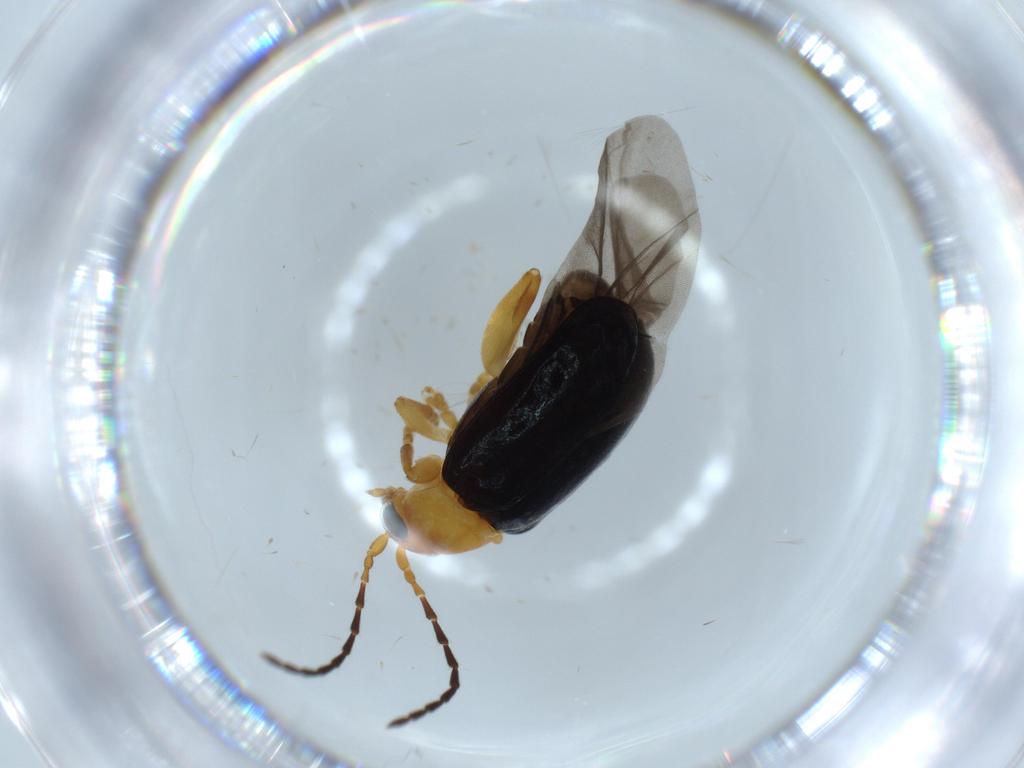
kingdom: Animalia
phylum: Arthropoda
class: Insecta
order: Coleoptera
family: Chrysomelidae
